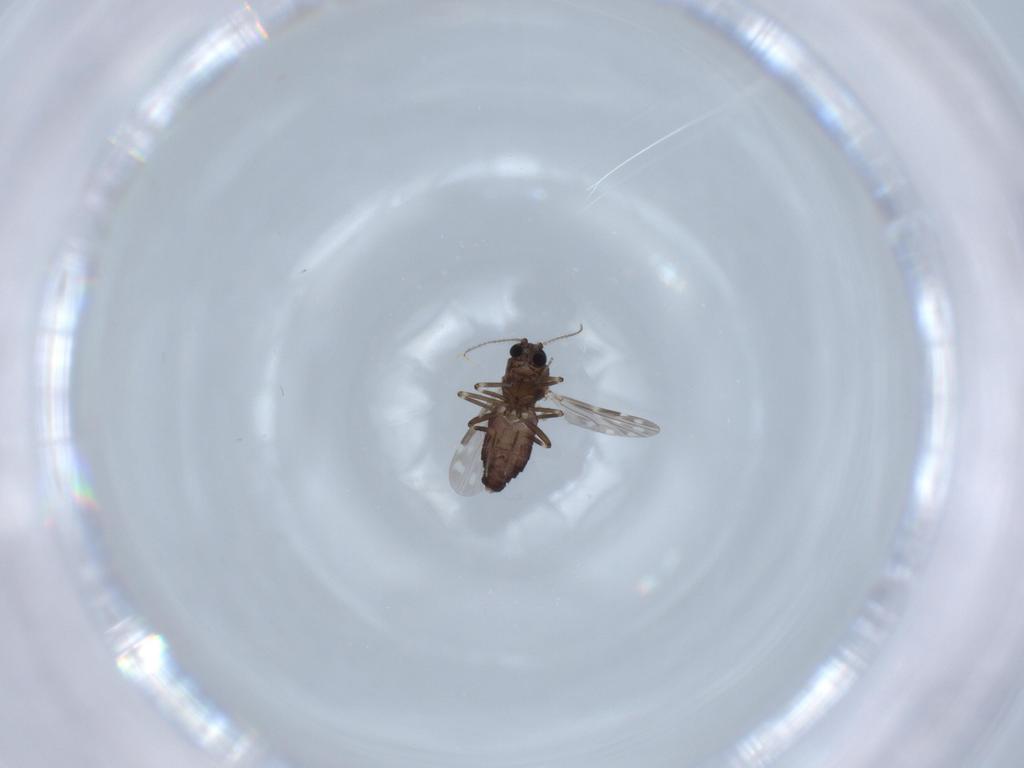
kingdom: Animalia
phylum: Arthropoda
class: Insecta
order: Diptera
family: Ceratopogonidae
